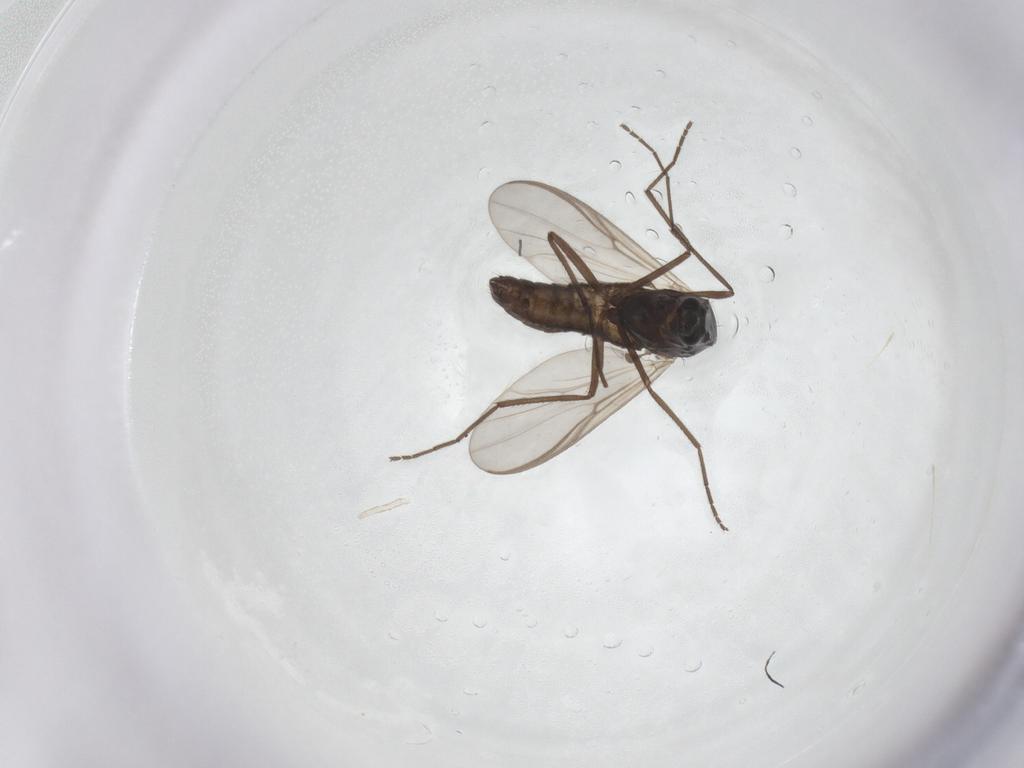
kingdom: Animalia
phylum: Arthropoda
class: Insecta
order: Diptera
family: Chironomidae
